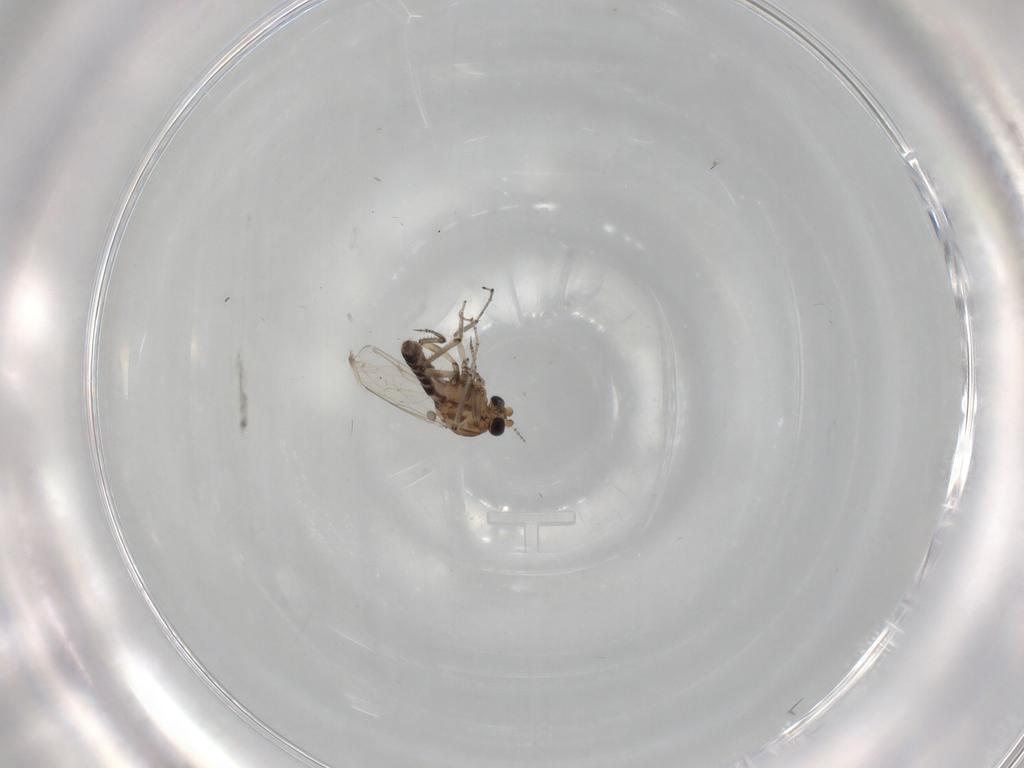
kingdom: Animalia
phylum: Arthropoda
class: Insecta
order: Diptera
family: Ceratopogonidae
